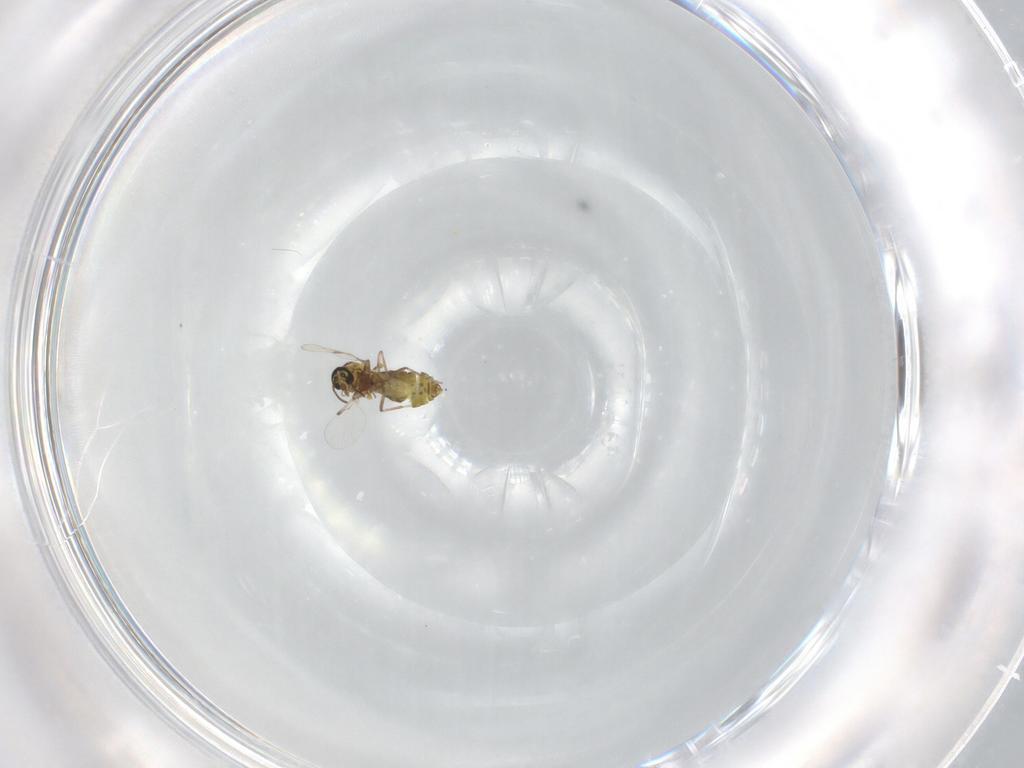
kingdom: Animalia
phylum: Arthropoda
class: Insecta
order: Diptera
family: Ceratopogonidae
